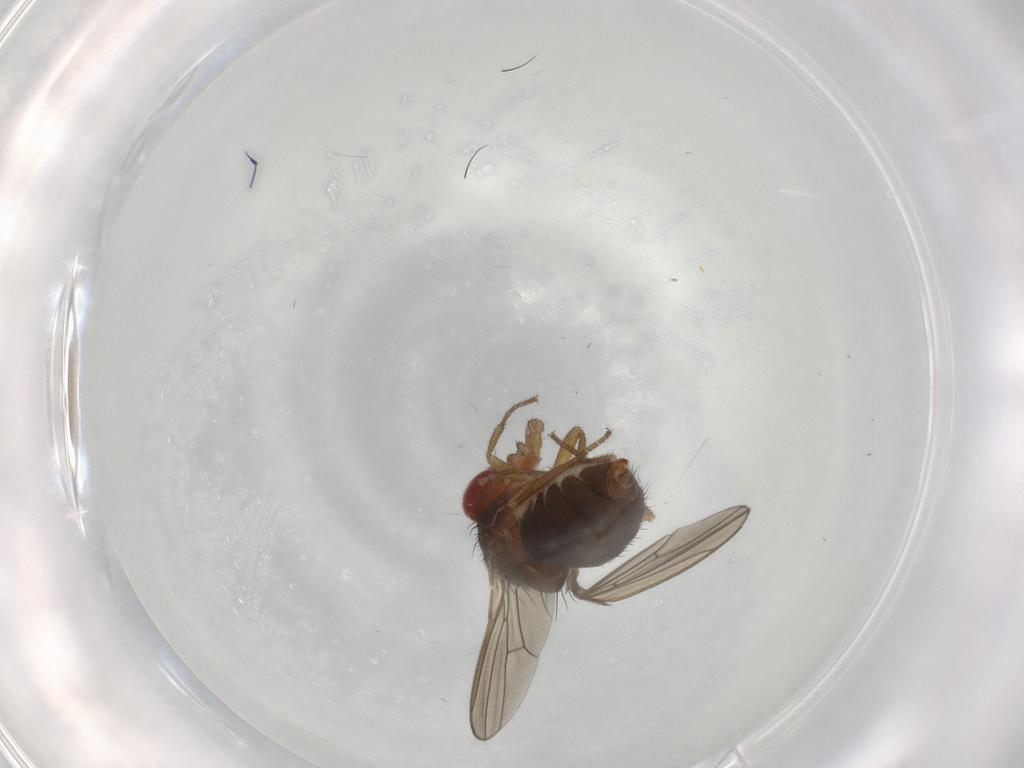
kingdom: Animalia
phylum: Arthropoda
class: Insecta
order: Diptera
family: Drosophilidae
